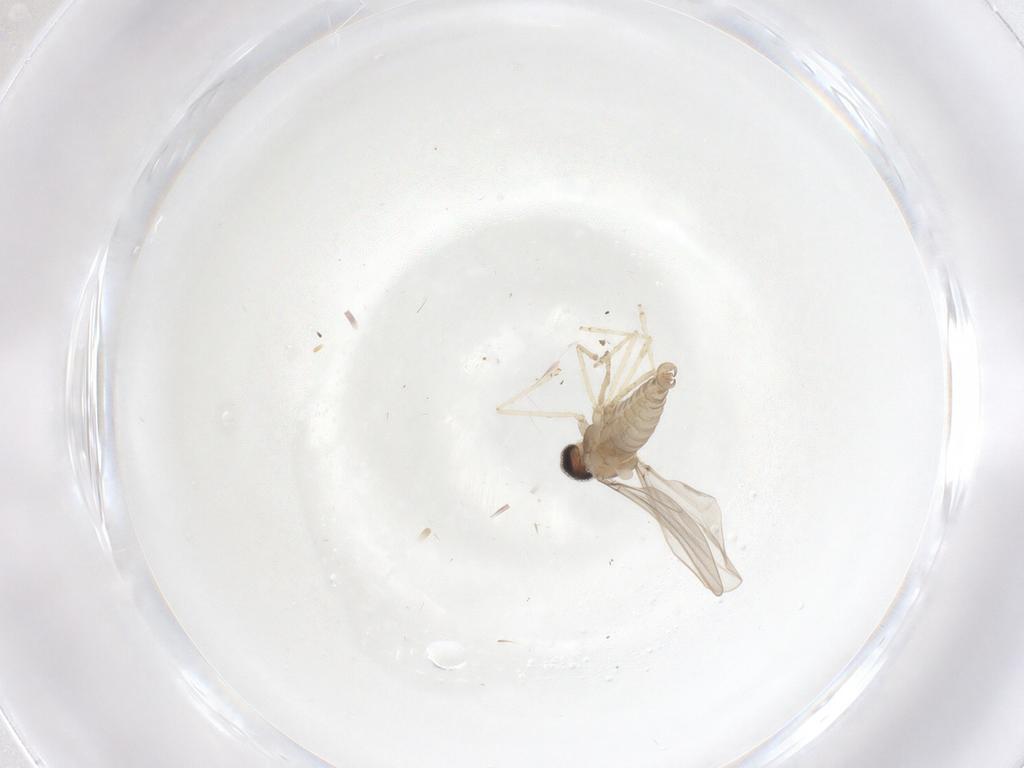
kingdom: Animalia
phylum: Arthropoda
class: Insecta
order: Diptera
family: Cecidomyiidae
